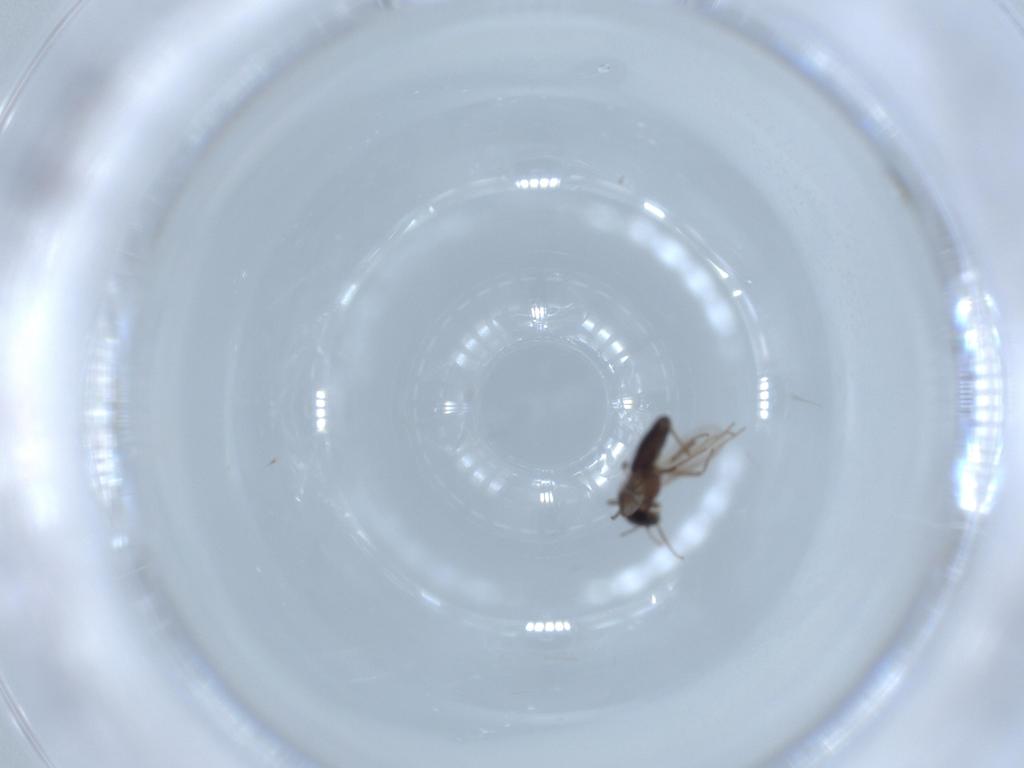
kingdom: Animalia
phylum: Arthropoda
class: Insecta
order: Diptera
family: Chironomidae
